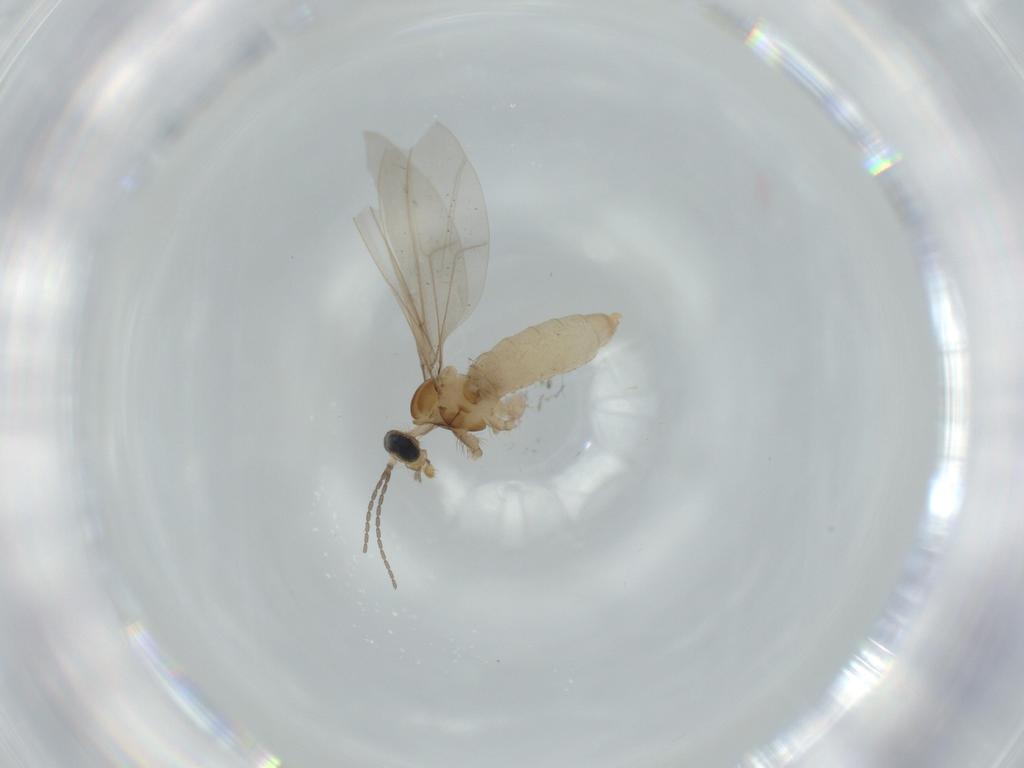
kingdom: Animalia
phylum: Arthropoda
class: Insecta
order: Diptera
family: Cecidomyiidae
